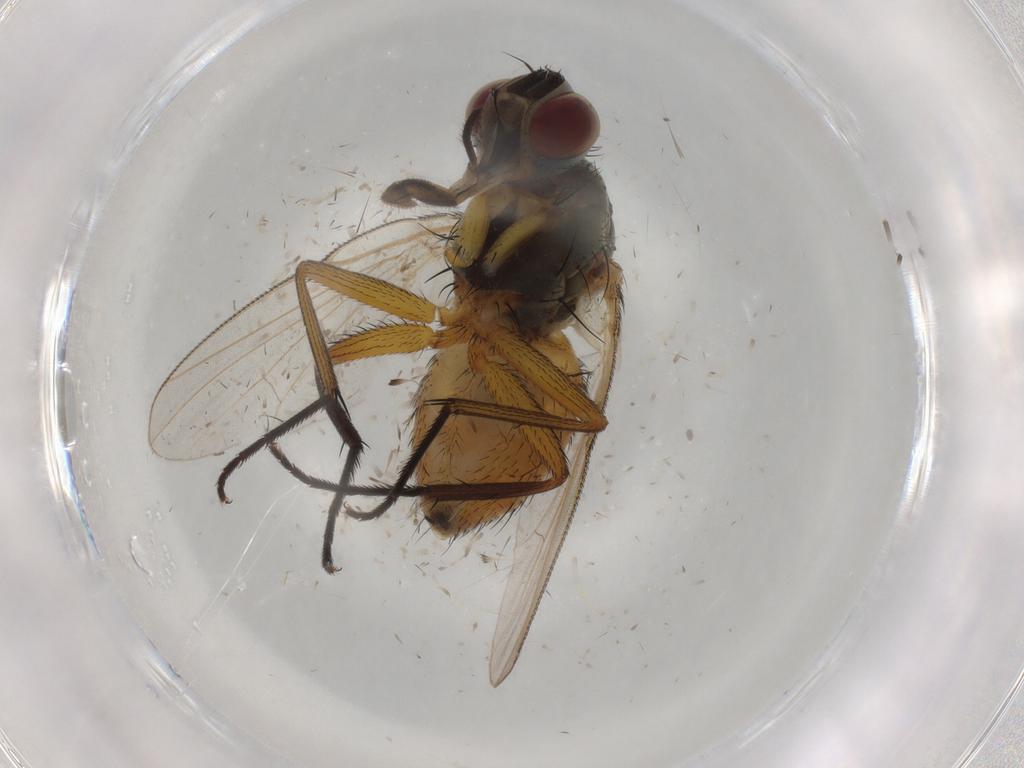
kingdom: Animalia
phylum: Arthropoda
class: Insecta
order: Diptera
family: Muscidae
